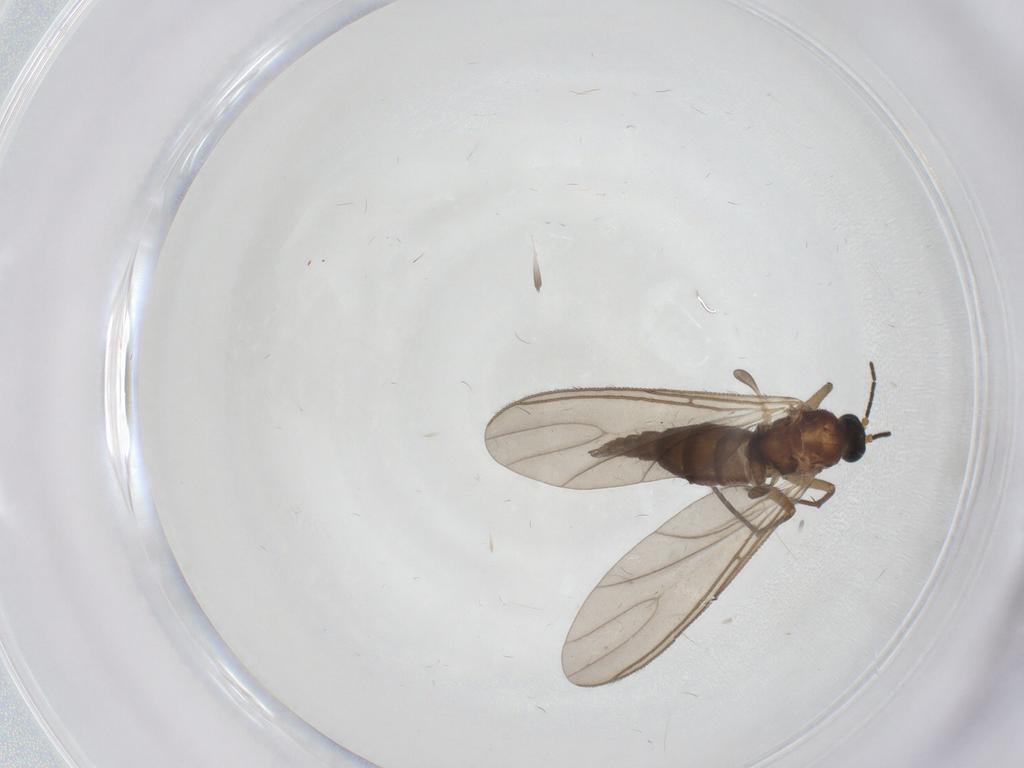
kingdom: Animalia
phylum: Arthropoda
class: Insecta
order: Diptera
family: Sciaridae
